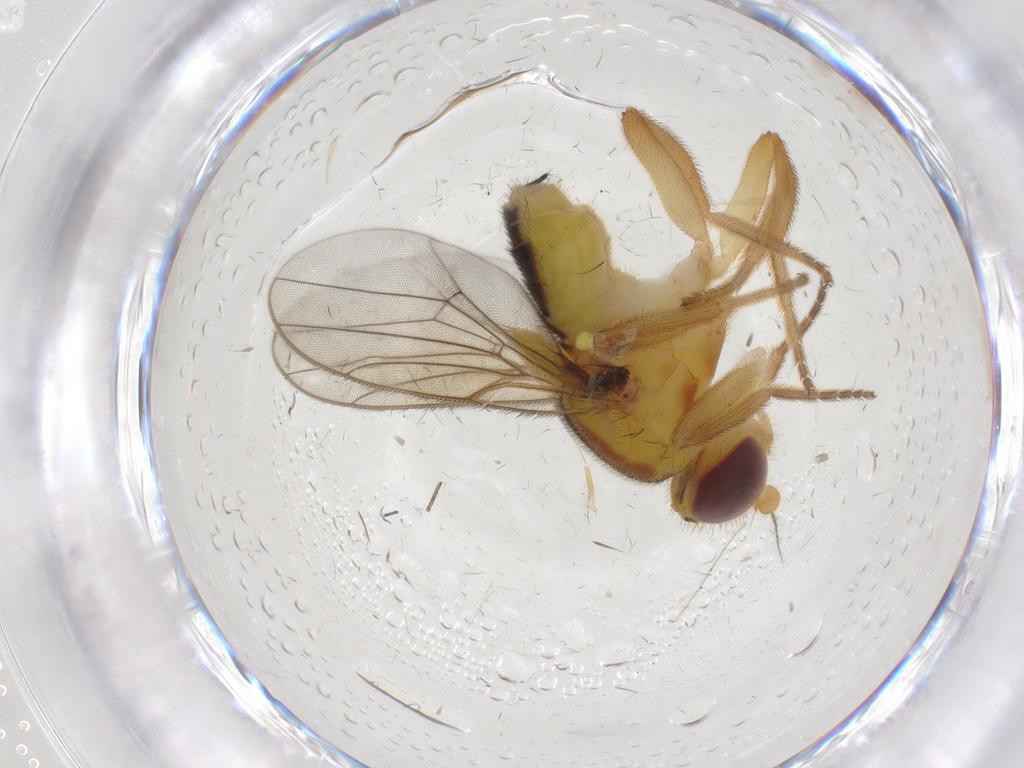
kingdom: Animalia
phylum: Arthropoda
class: Insecta
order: Diptera
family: Chloropidae
